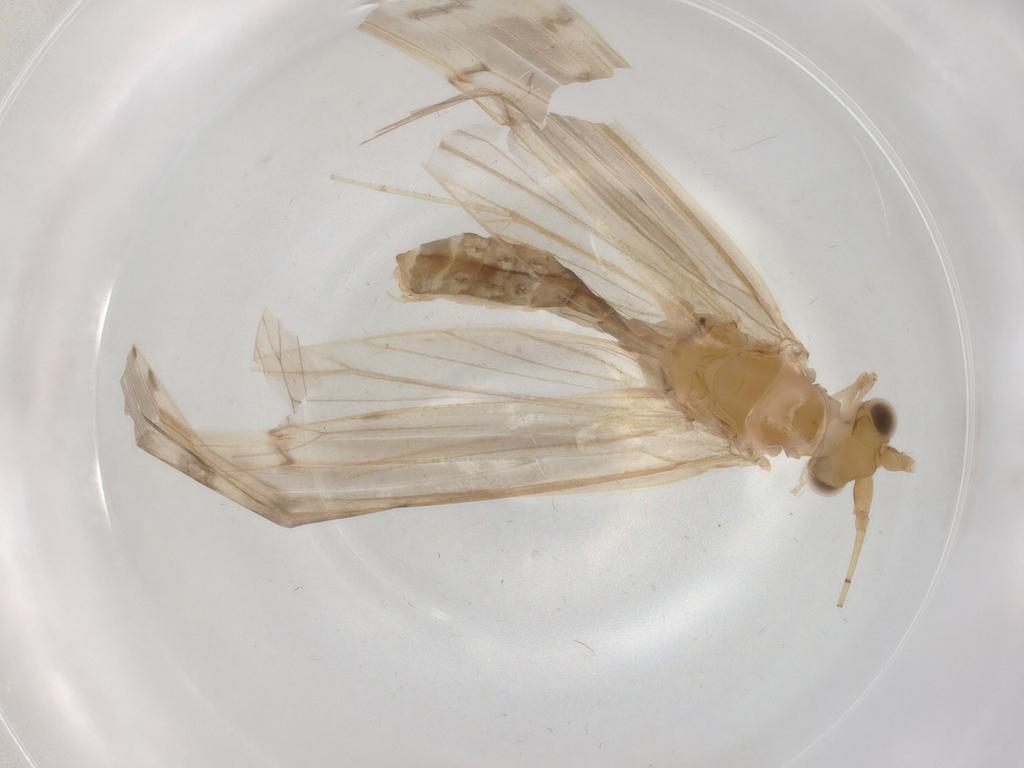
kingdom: Animalia
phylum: Arthropoda
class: Insecta
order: Trichoptera
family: Leptoceridae
